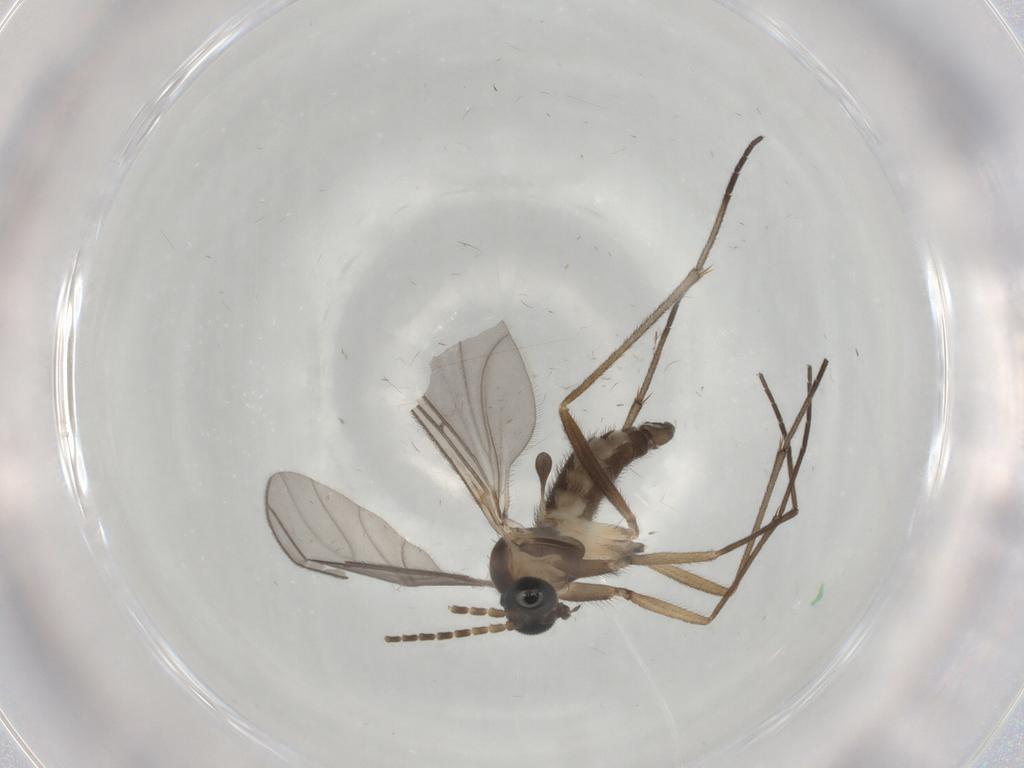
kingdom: Animalia
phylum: Arthropoda
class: Insecta
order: Diptera
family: Sciaridae
